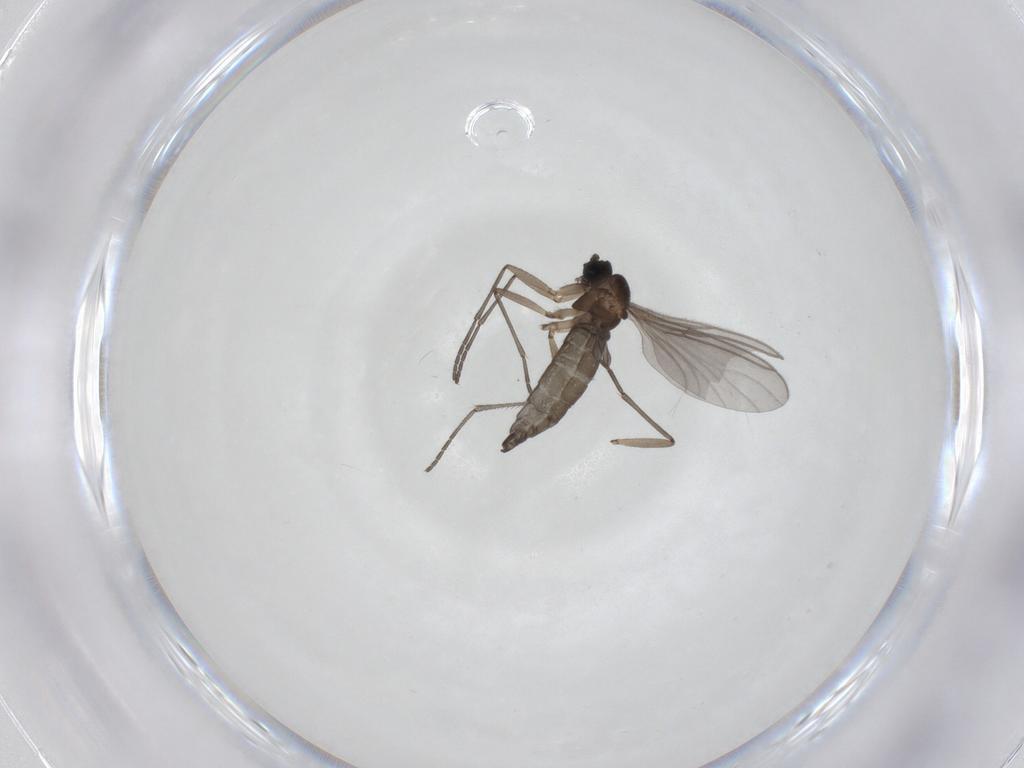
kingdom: Animalia
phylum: Arthropoda
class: Insecta
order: Diptera
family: Sciaridae
